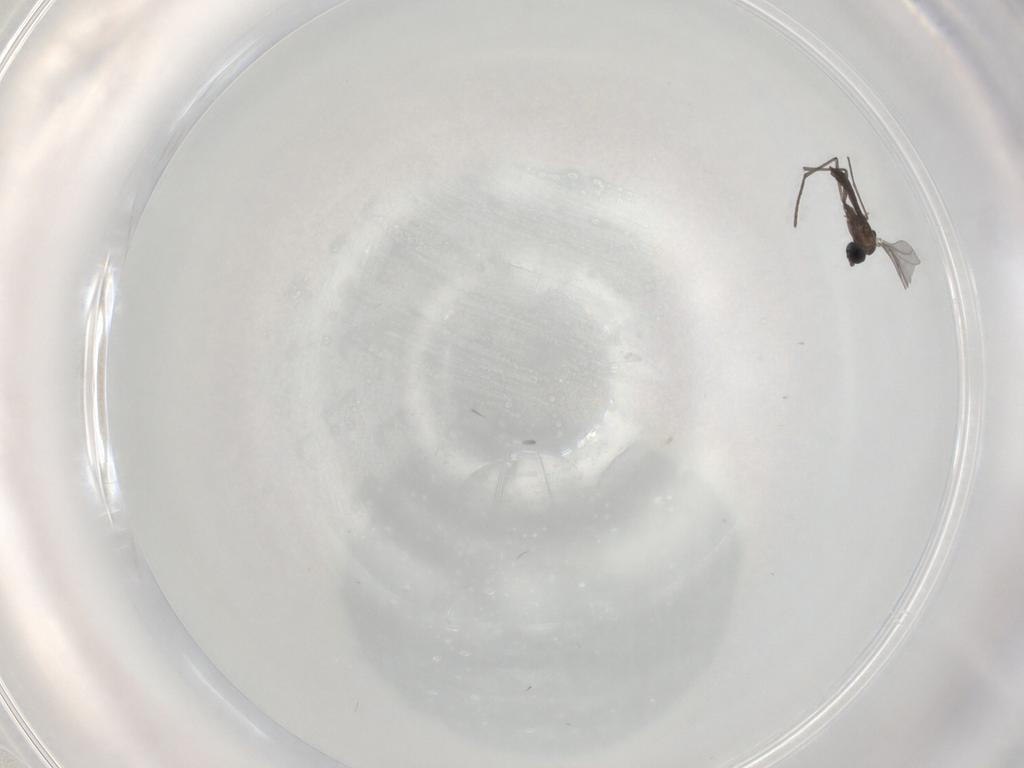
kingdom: Animalia
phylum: Arthropoda
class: Insecta
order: Diptera
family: Sciaridae
